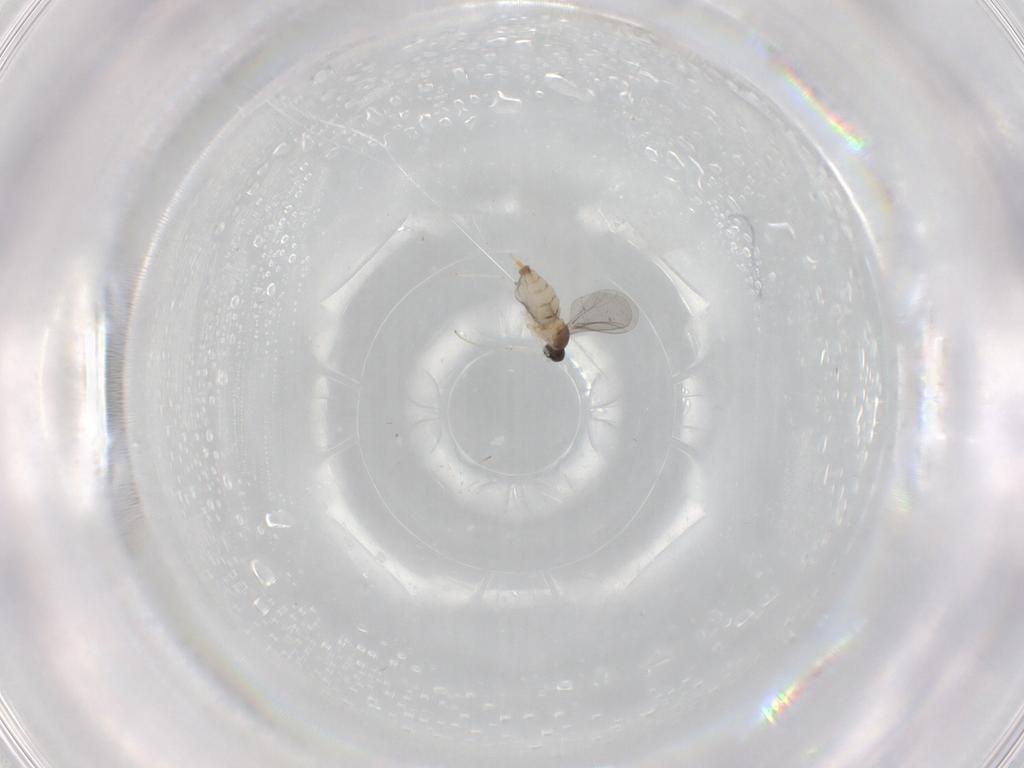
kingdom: Animalia
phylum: Arthropoda
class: Insecta
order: Diptera
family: Cecidomyiidae
